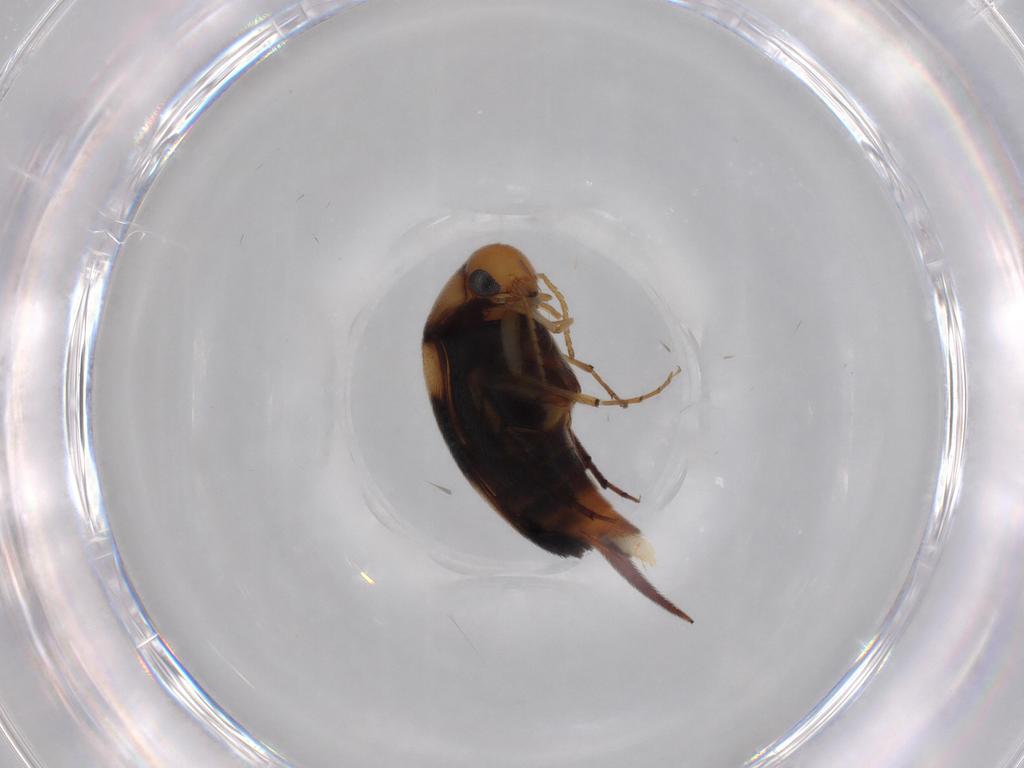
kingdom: Animalia
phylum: Arthropoda
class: Insecta
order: Coleoptera
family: Mordellidae
